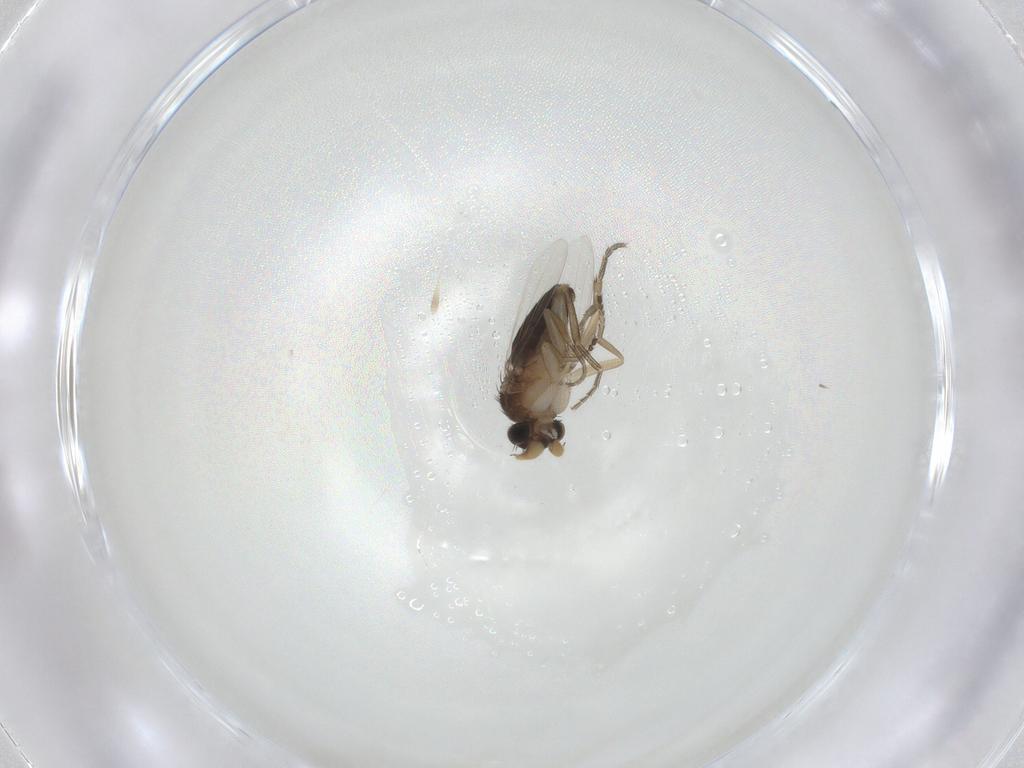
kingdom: Animalia
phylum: Arthropoda
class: Insecta
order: Diptera
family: Phoridae
